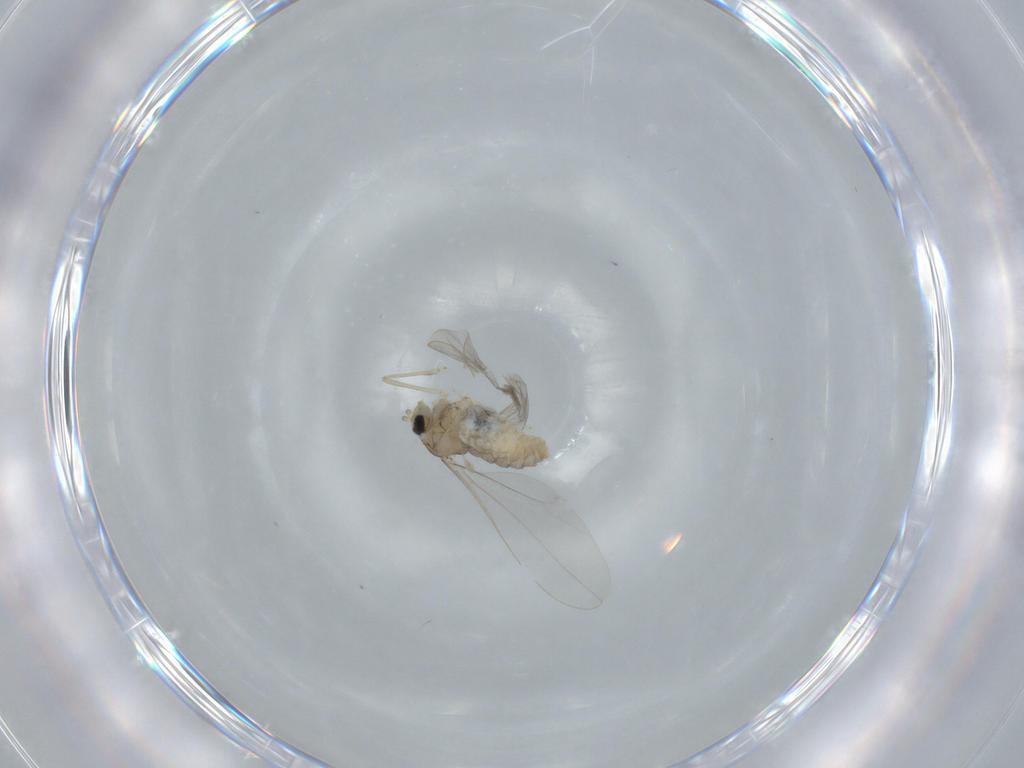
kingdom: Animalia
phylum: Arthropoda
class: Insecta
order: Diptera
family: Cecidomyiidae
